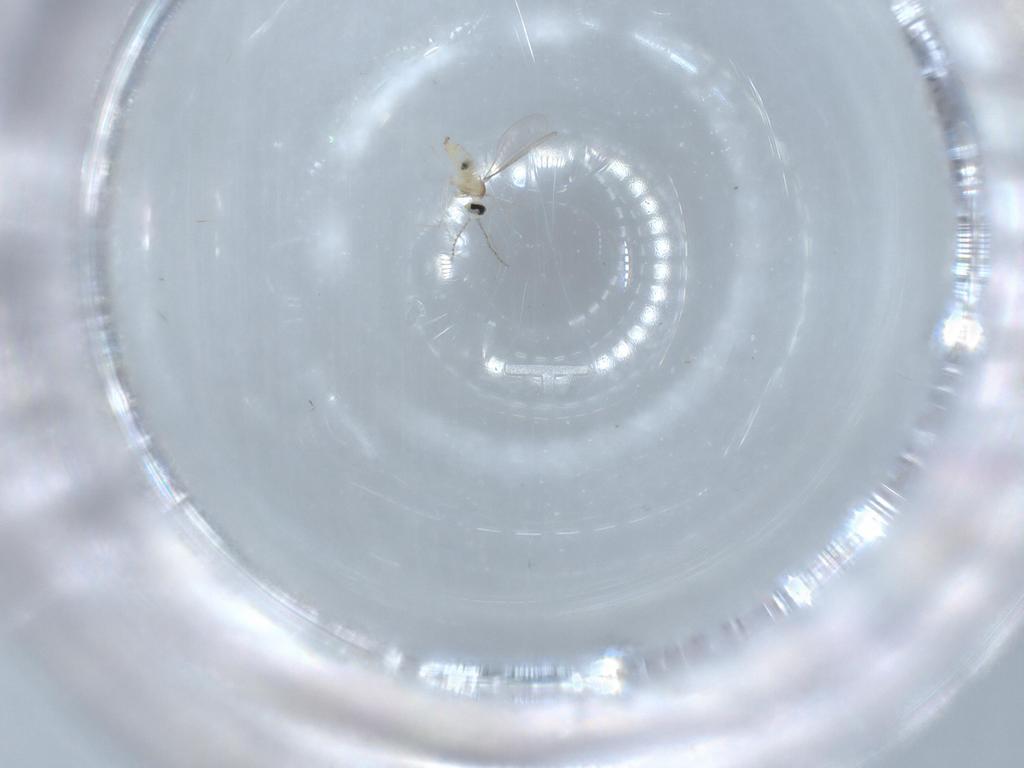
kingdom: Animalia
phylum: Arthropoda
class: Insecta
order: Diptera
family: Cecidomyiidae
